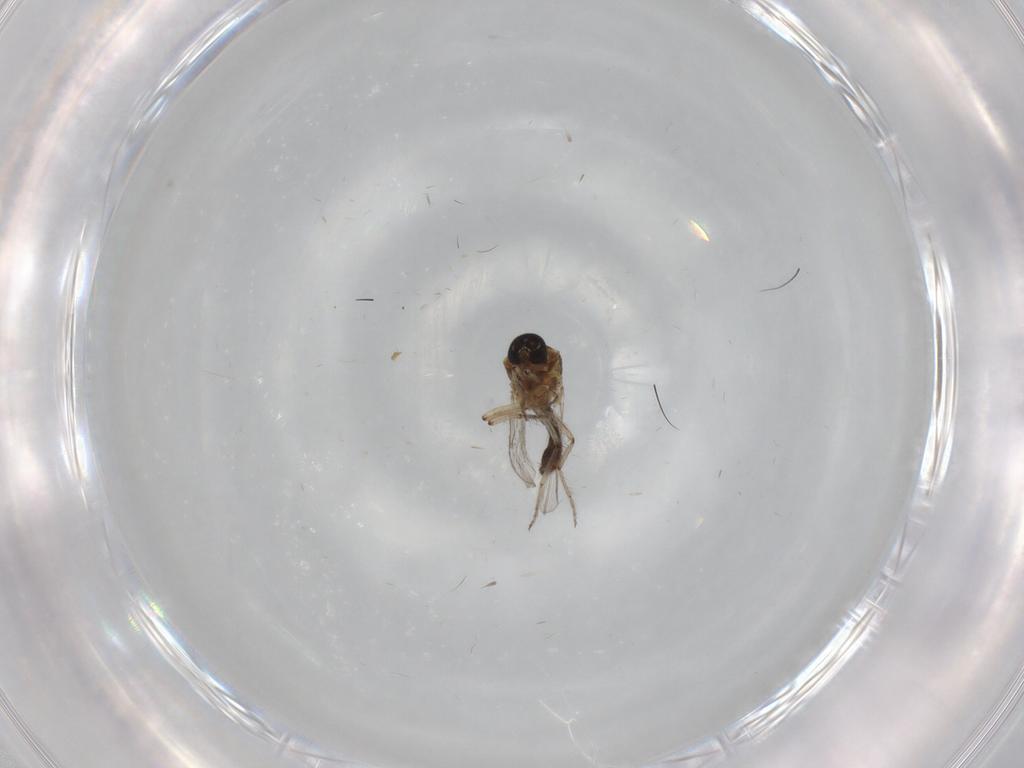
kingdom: Animalia
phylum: Arthropoda
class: Insecta
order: Diptera
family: Ceratopogonidae
